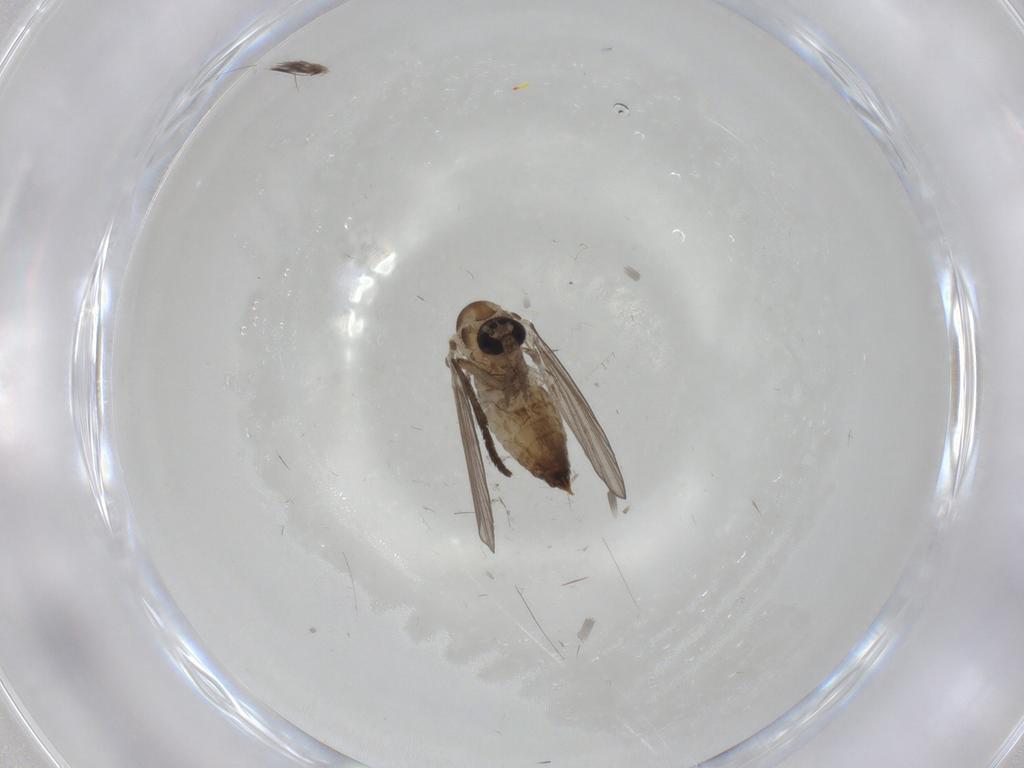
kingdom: Animalia
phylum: Arthropoda
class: Insecta
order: Diptera
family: Psychodidae
